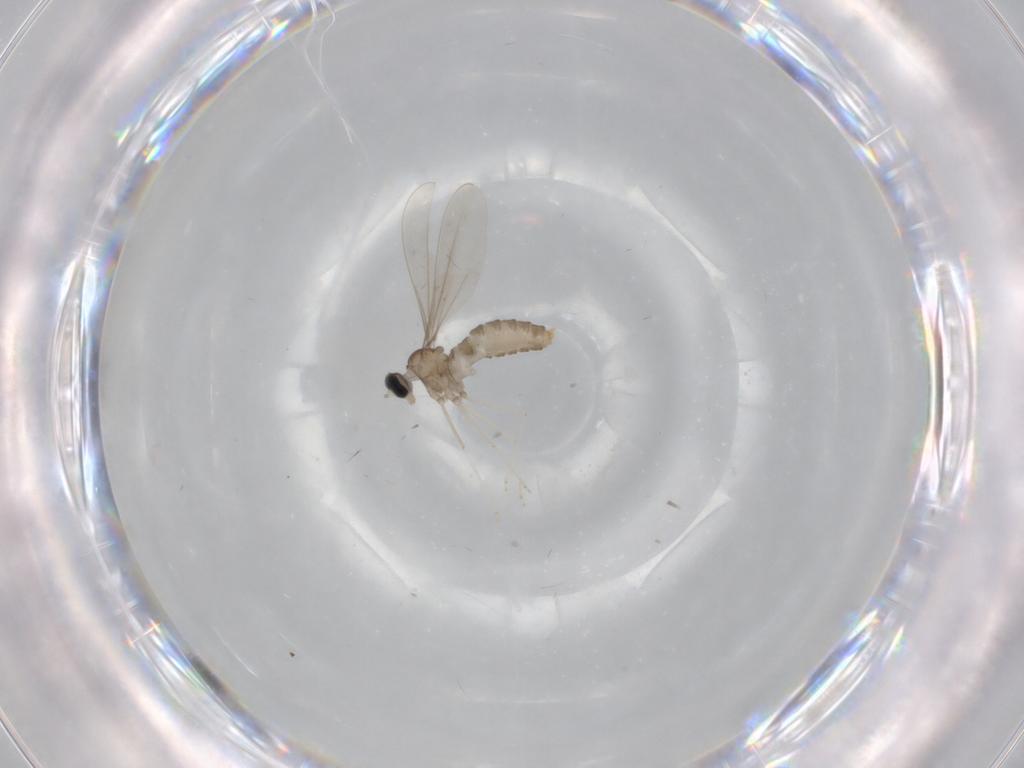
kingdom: Animalia
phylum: Arthropoda
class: Insecta
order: Diptera
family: Cecidomyiidae
